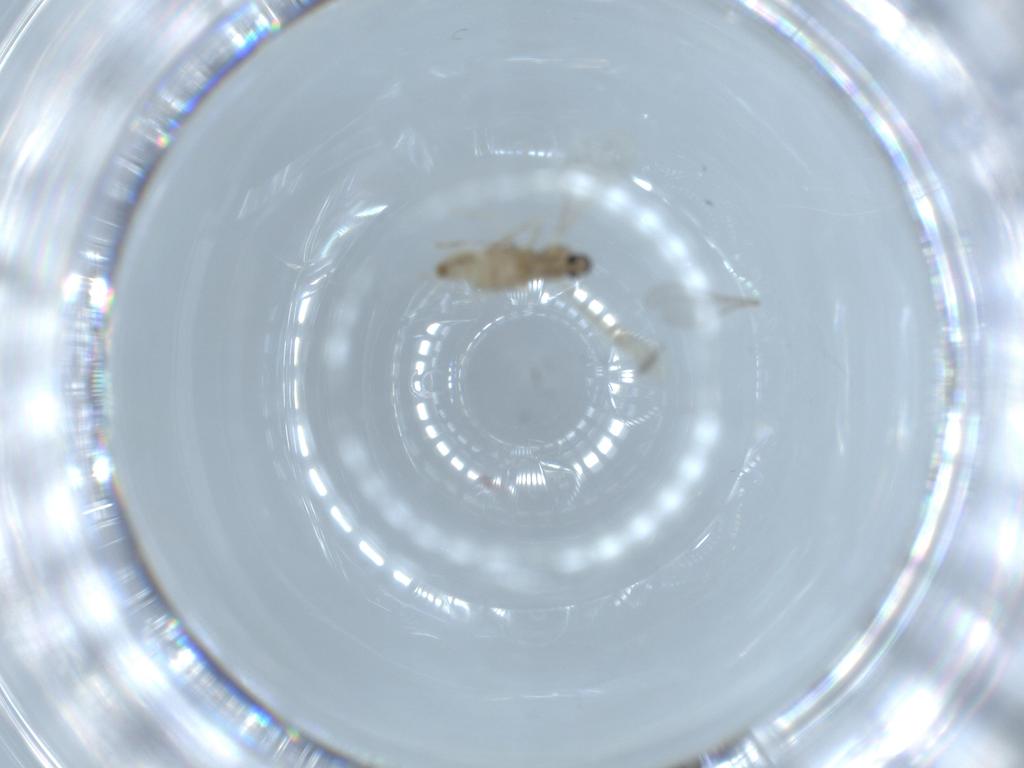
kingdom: Animalia
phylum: Arthropoda
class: Insecta
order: Diptera
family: Cecidomyiidae
